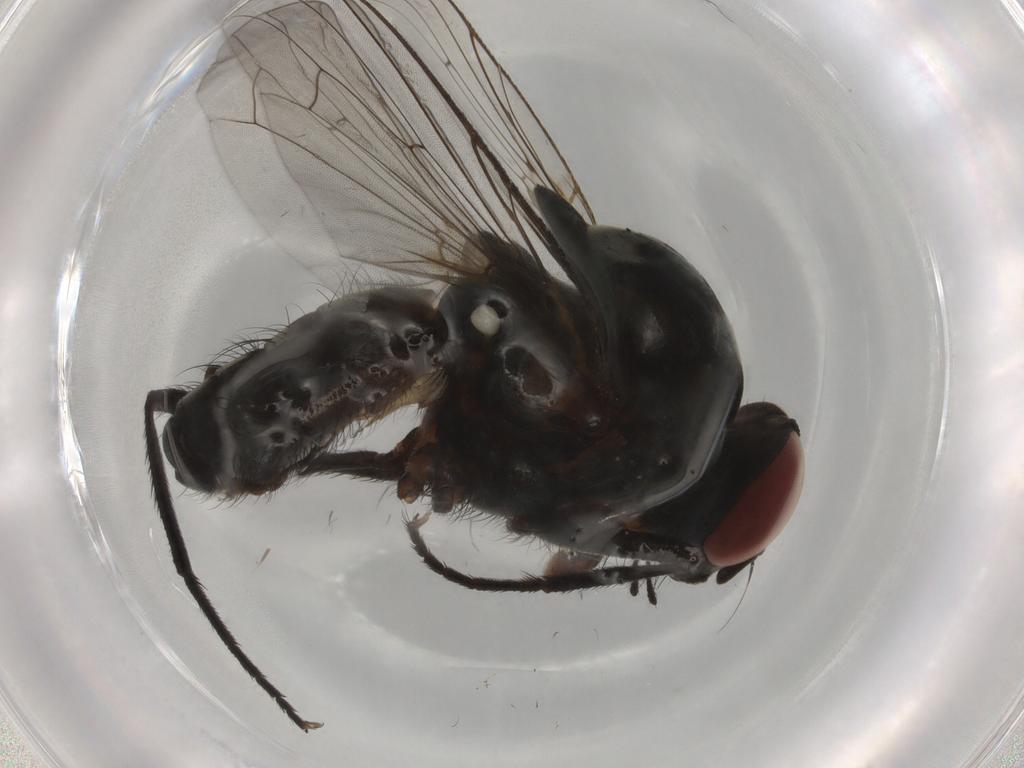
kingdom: Animalia
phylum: Arthropoda
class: Insecta
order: Diptera
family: Anthomyiidae
